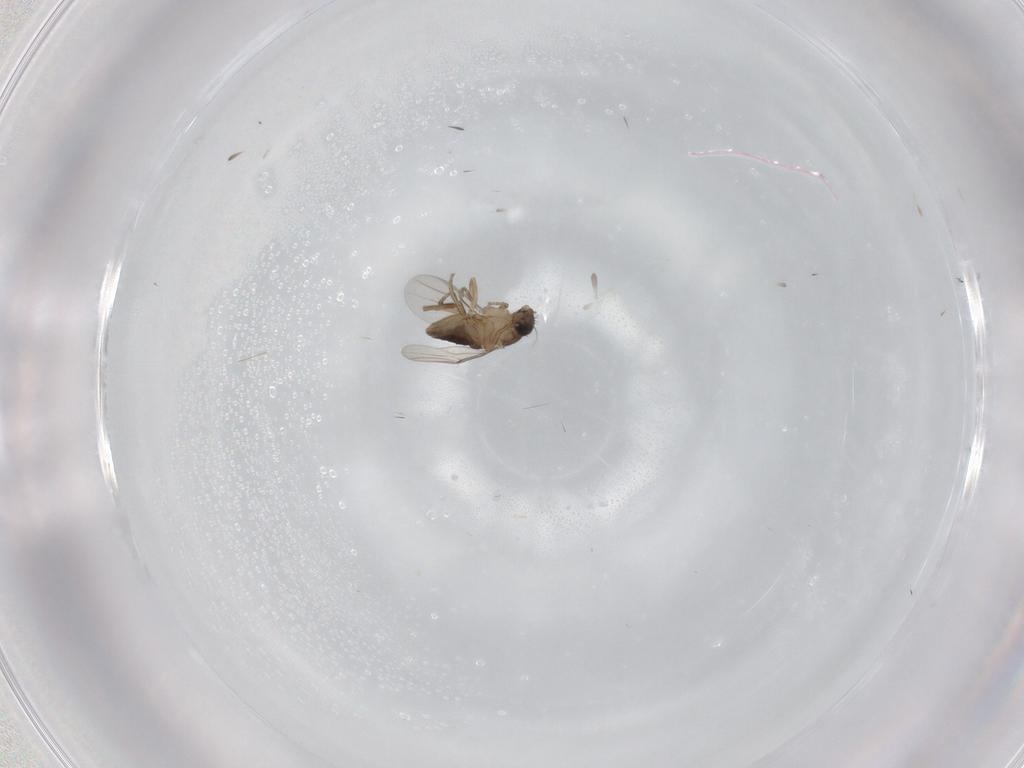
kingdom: Animalia
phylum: Arthropoda
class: Insecta
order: Diptera
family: Phoridae
